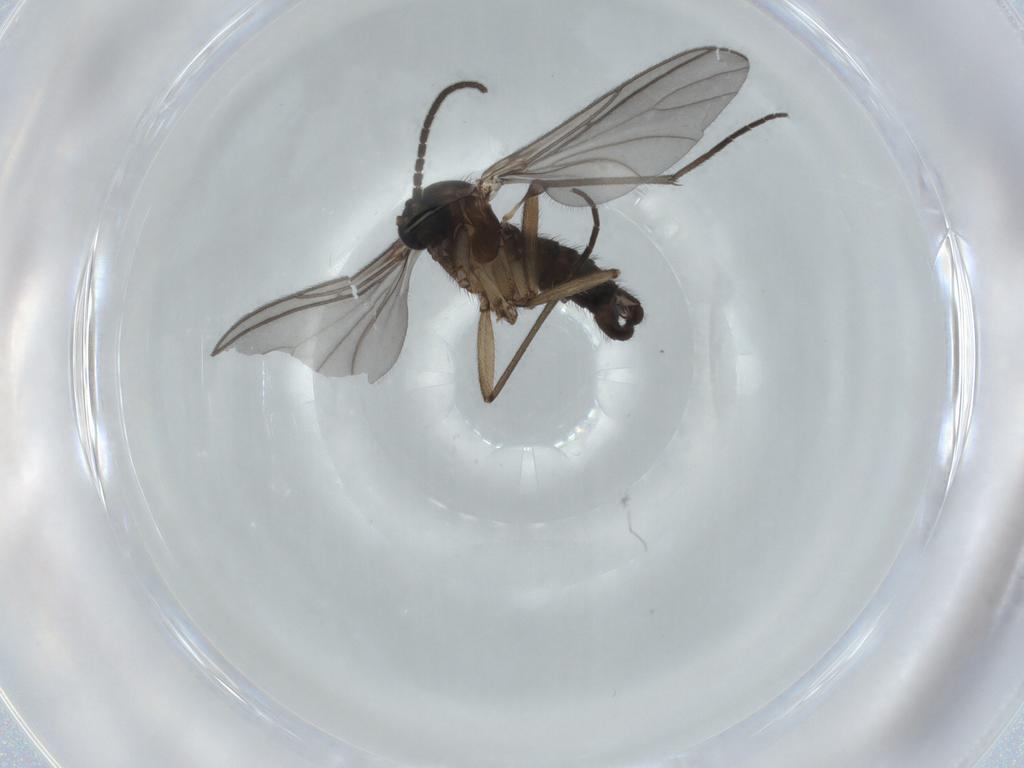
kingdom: Animalia
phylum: Arthropoda
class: Insecta
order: Diptera
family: Sciaridae
